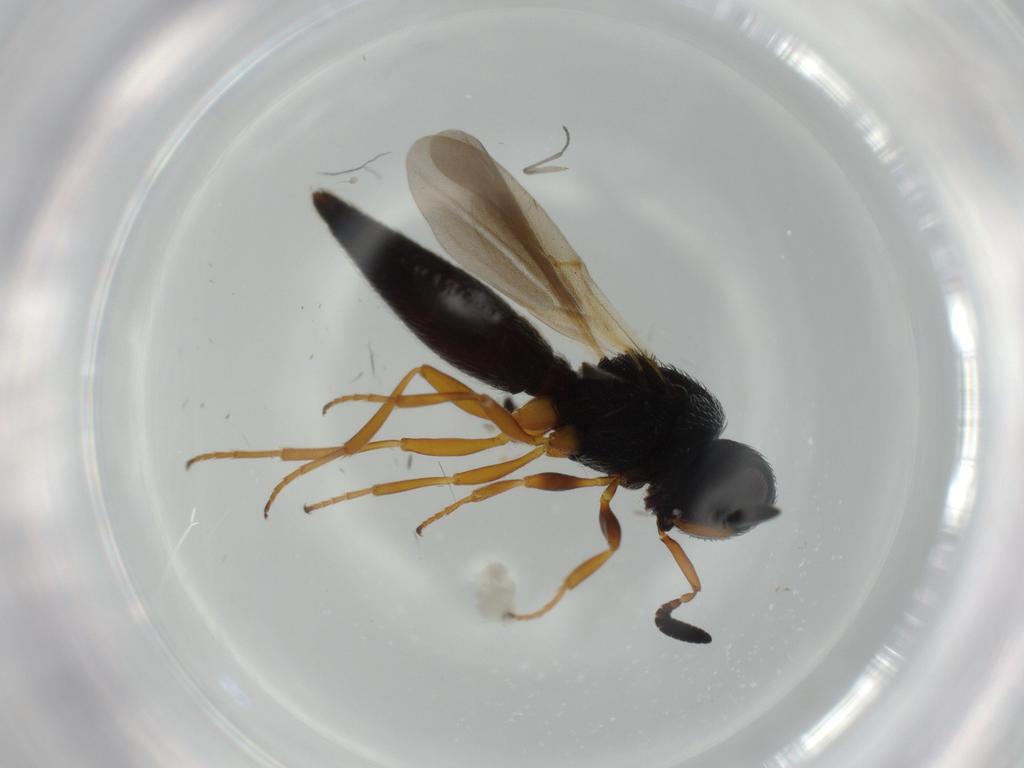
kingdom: Animalia
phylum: Arthropoda
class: Insecta
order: Hymenoptera
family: Scelionidae
